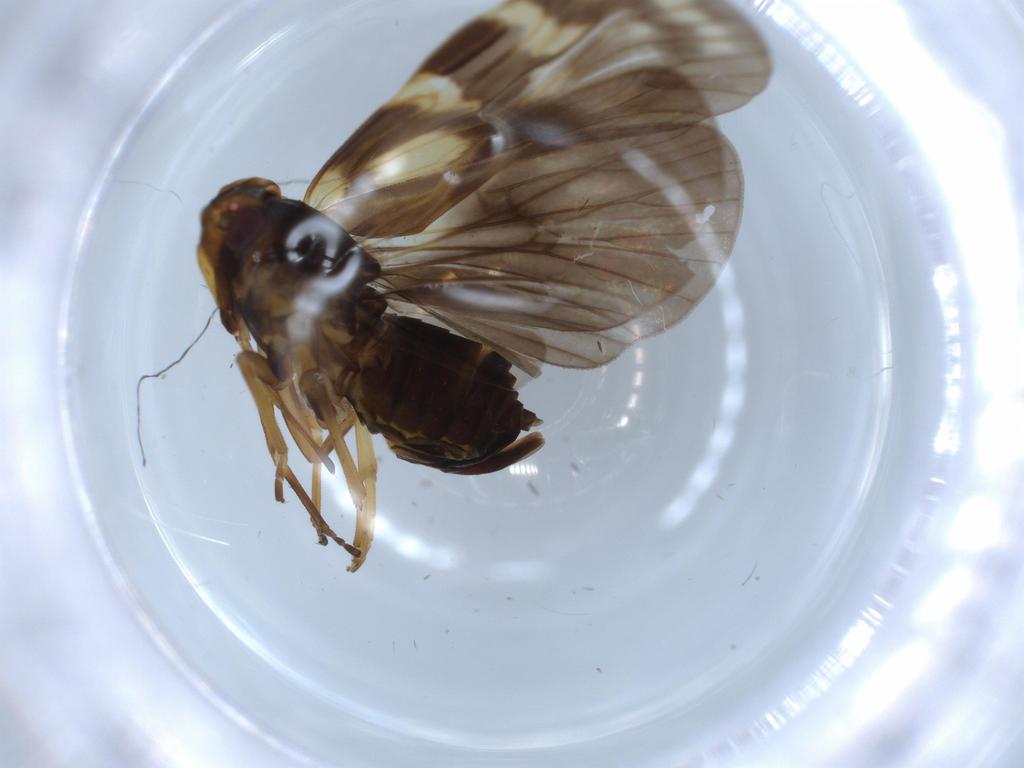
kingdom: Animalia
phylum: Arthropoda
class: Insecta
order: Hemiptera
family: Cixiidae
